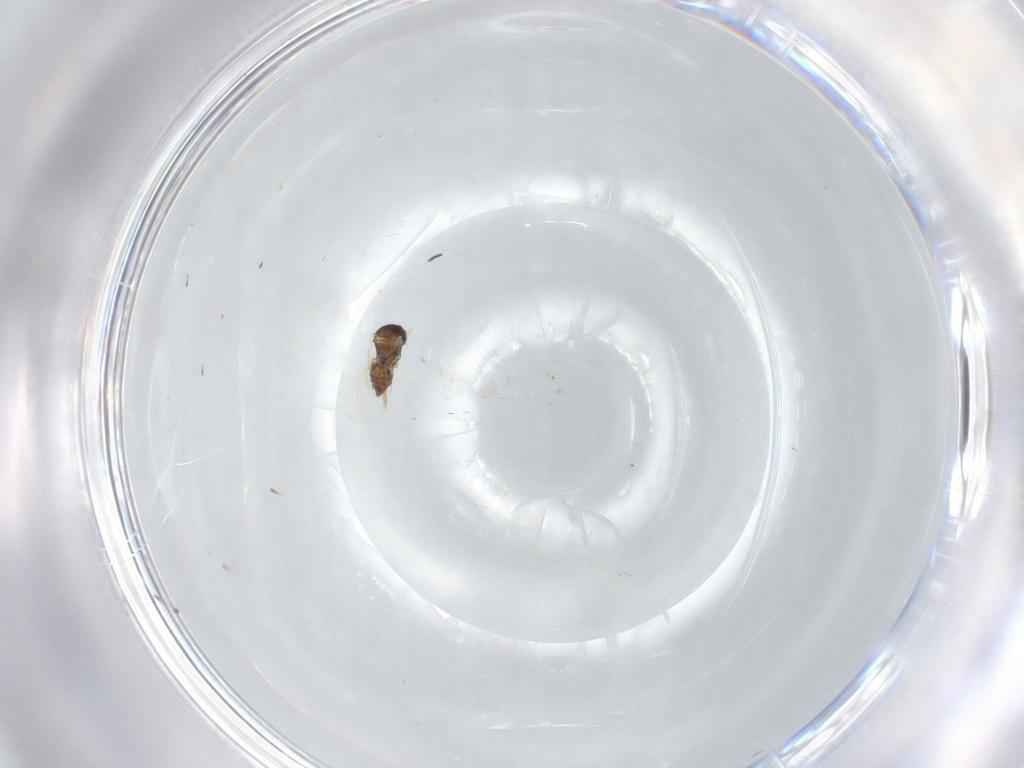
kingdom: Animalia
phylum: Arthropoda
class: Insecta
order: Diptera
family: Cecidomyiidae
